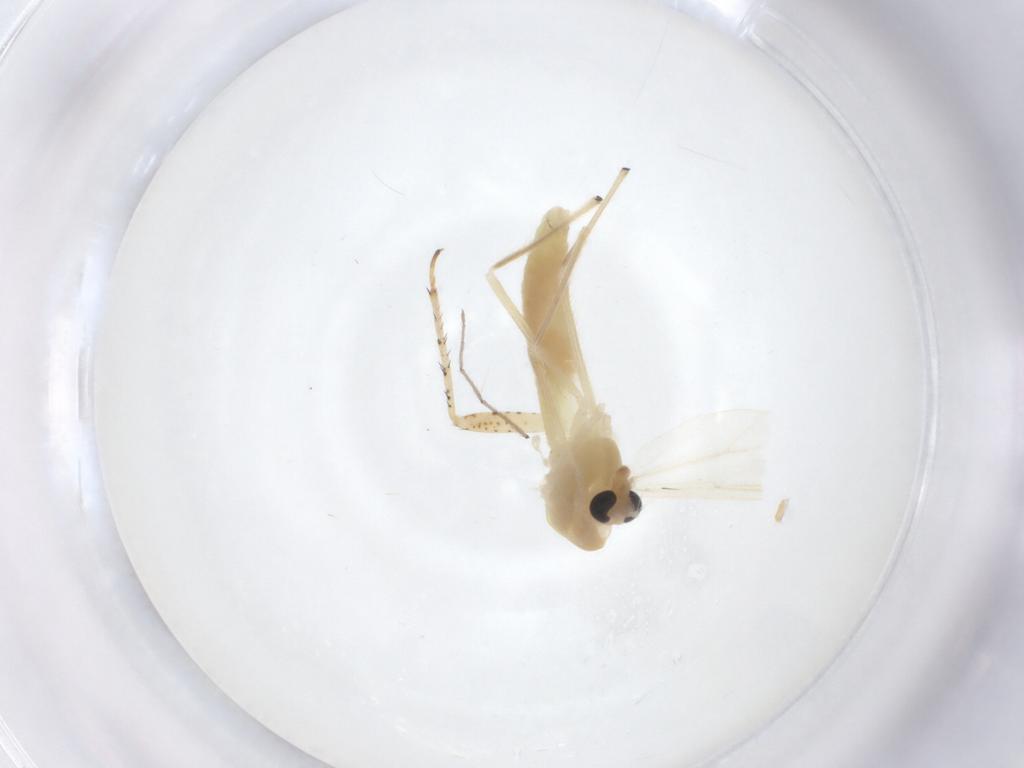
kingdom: Animalia
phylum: Arthropoda
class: Insecta
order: Diptera
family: Chironomidae
